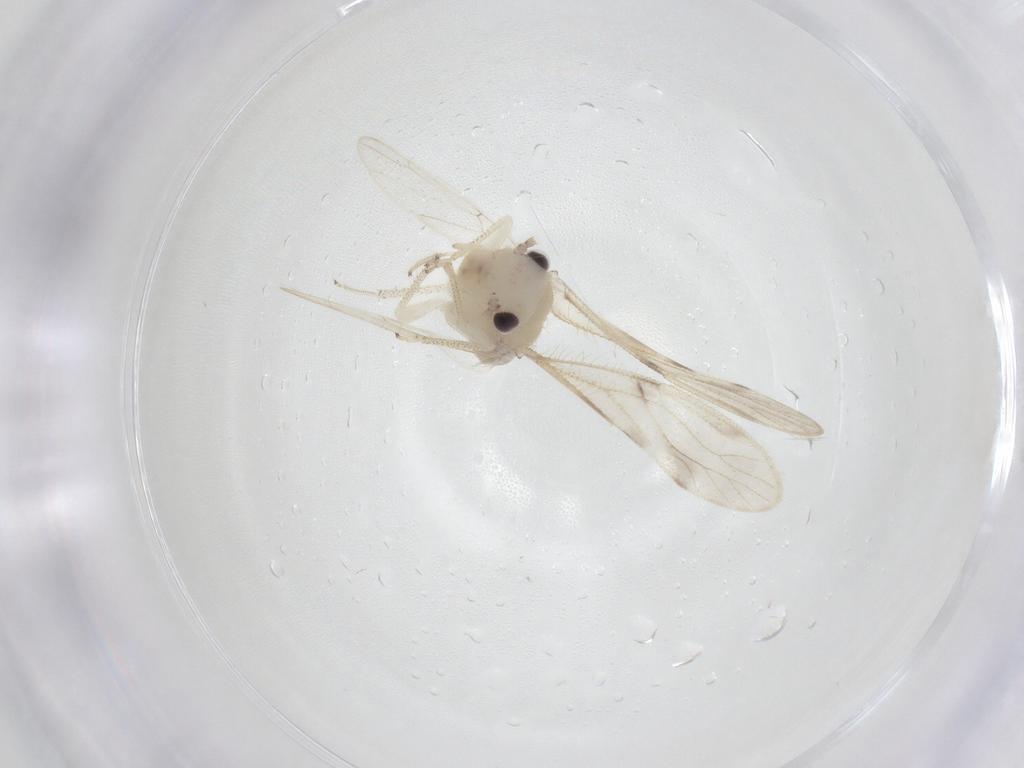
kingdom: Animalia
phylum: Arthropoda
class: Insecta
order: Psocodea
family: Pseudocaeciliidae
